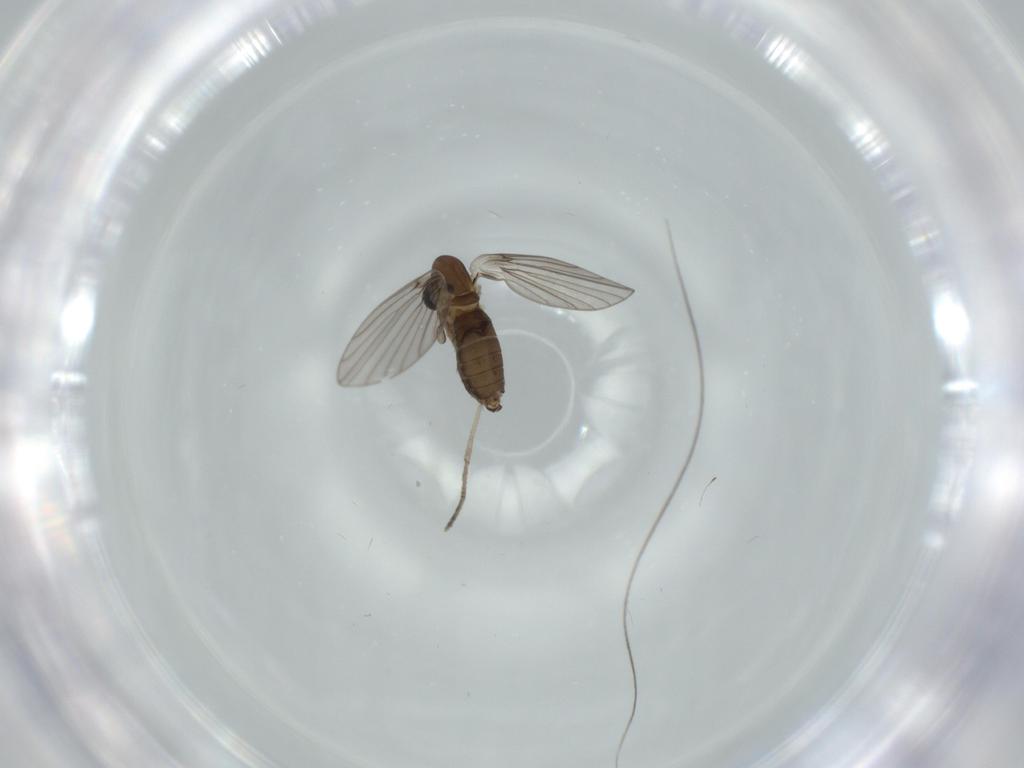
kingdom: Animalia
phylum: Arthropoda
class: Insecta
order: Diptera
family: Psychodidae
